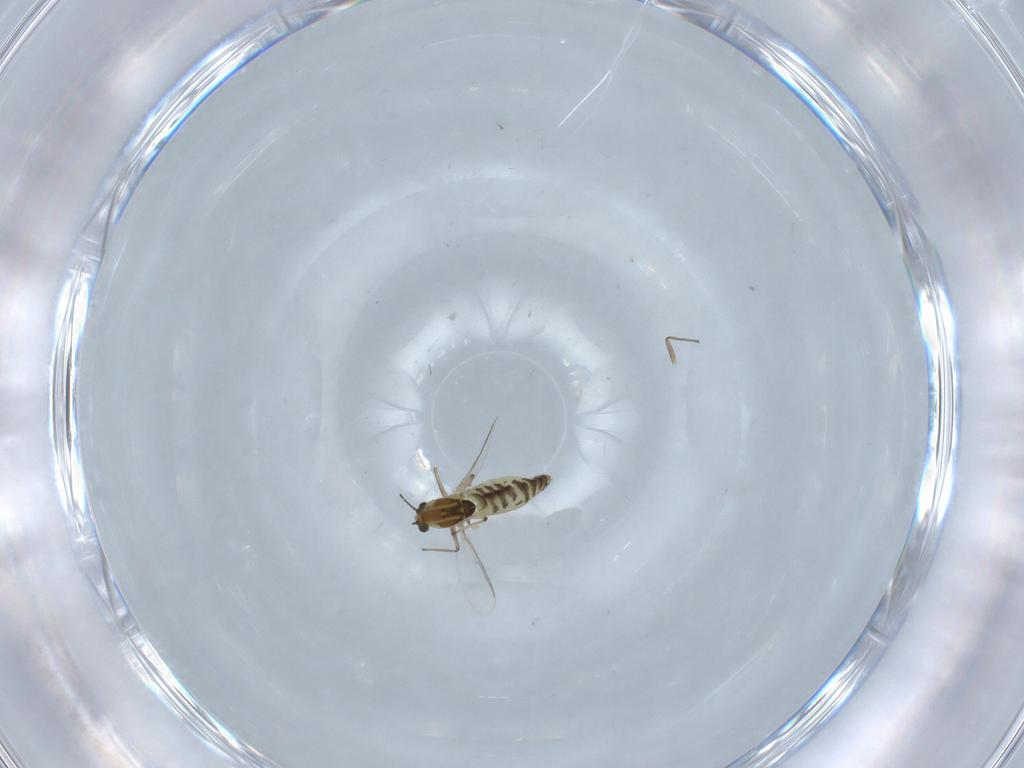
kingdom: Animalia
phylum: Arthropoda
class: Insecta
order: Diptera
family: Chironomidae
